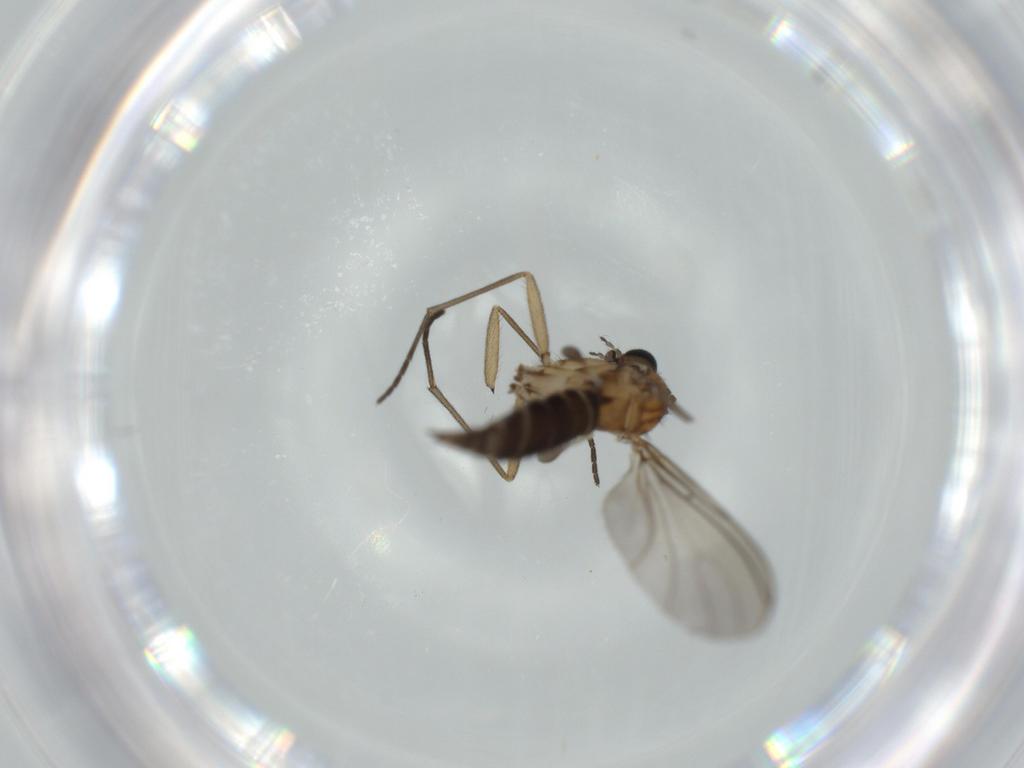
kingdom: Animalia
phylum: Arthropoda
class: Insecta
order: Diptera
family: Sciaridae
